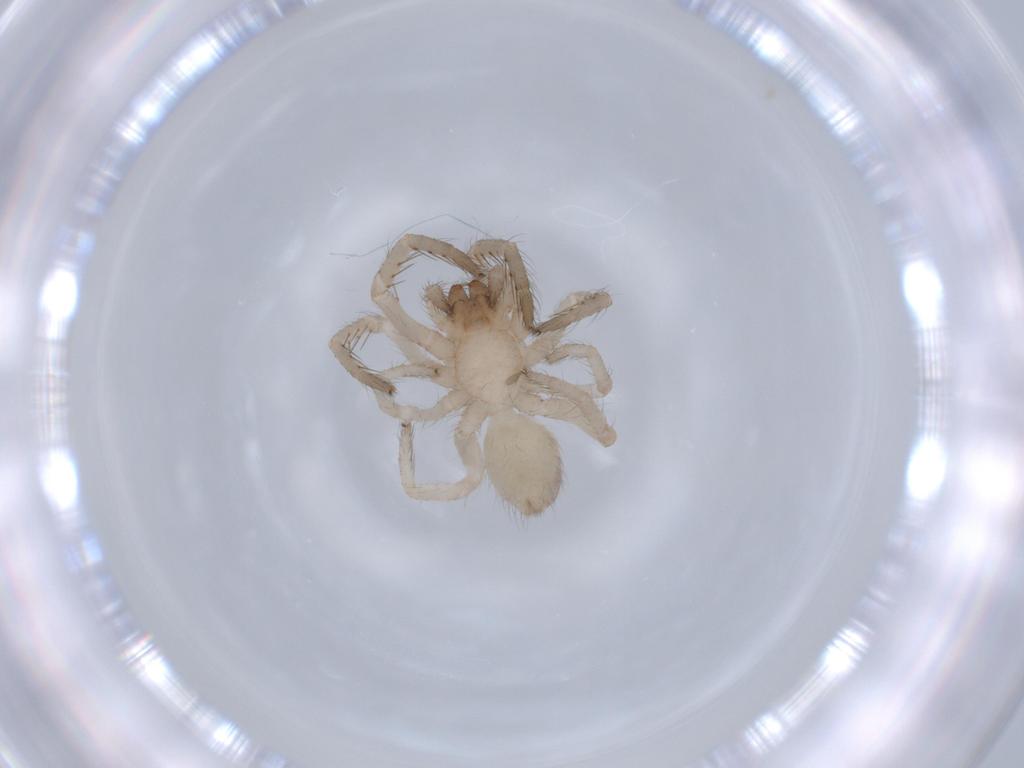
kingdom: Animalia
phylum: Arthropoda
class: Arachnida
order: Araneae
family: Segestriidae
